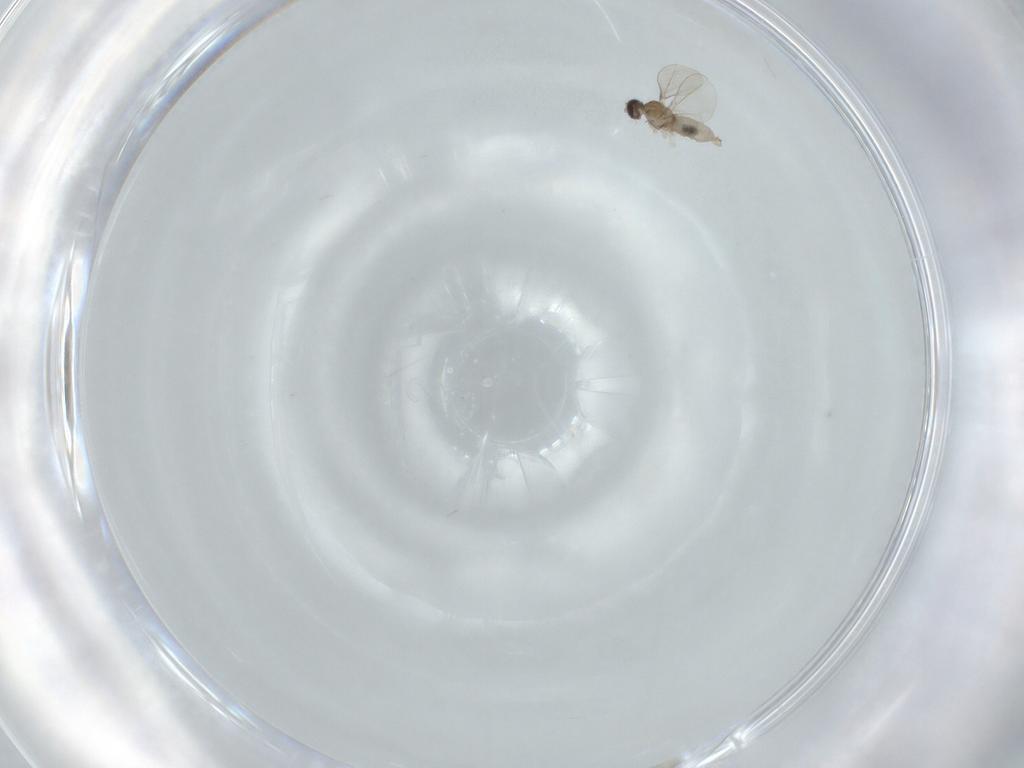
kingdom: Animalia
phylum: Arthropoda
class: Insecta
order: Diptera
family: Cecidomyiidae
